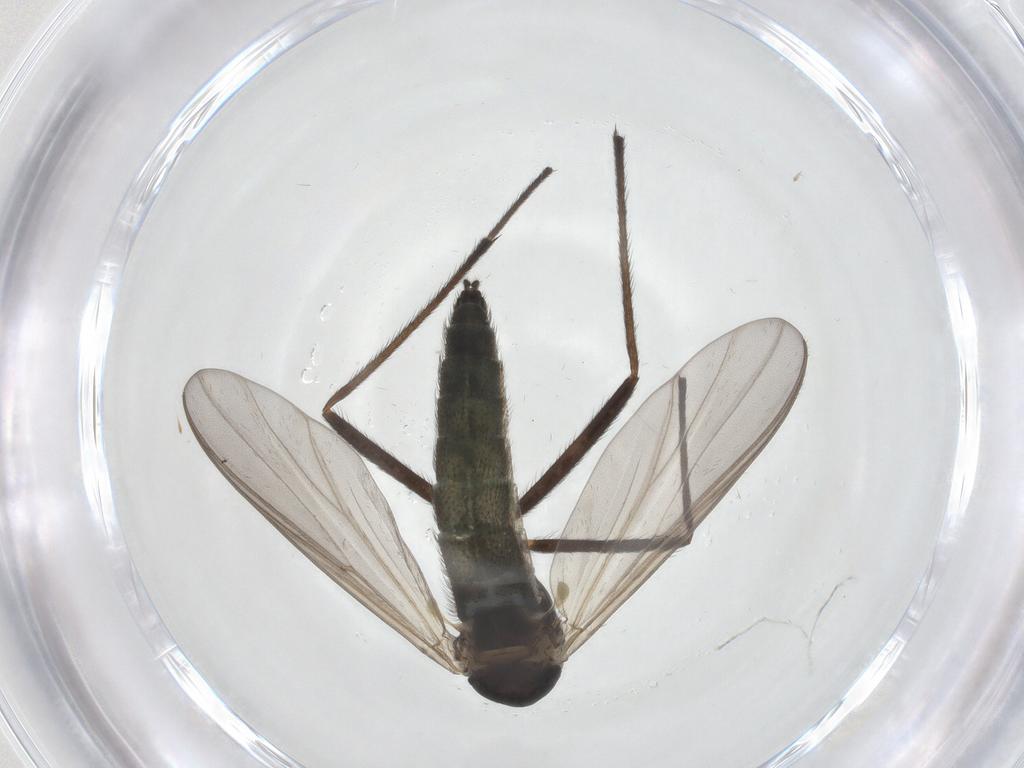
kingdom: Animalia
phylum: Arthropoda
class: Insecta
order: Diptera
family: Chironomidae
